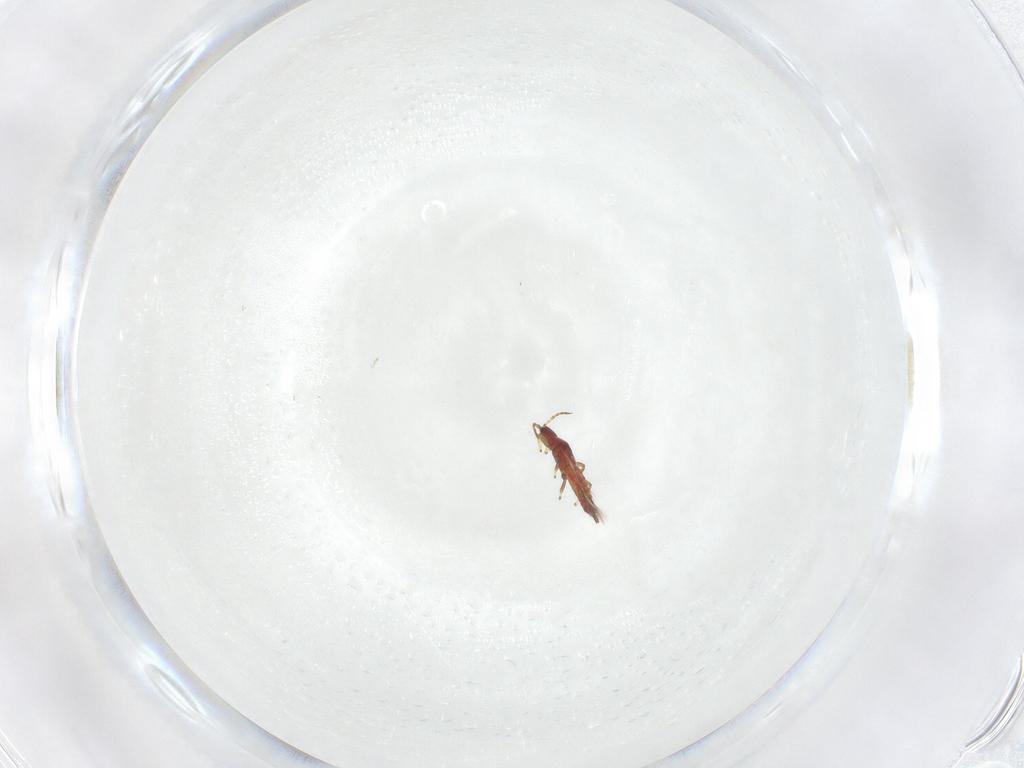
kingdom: Animalia
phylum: Arthropoda
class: Insecta
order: Thysanoptera
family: Phlaeothripidae
